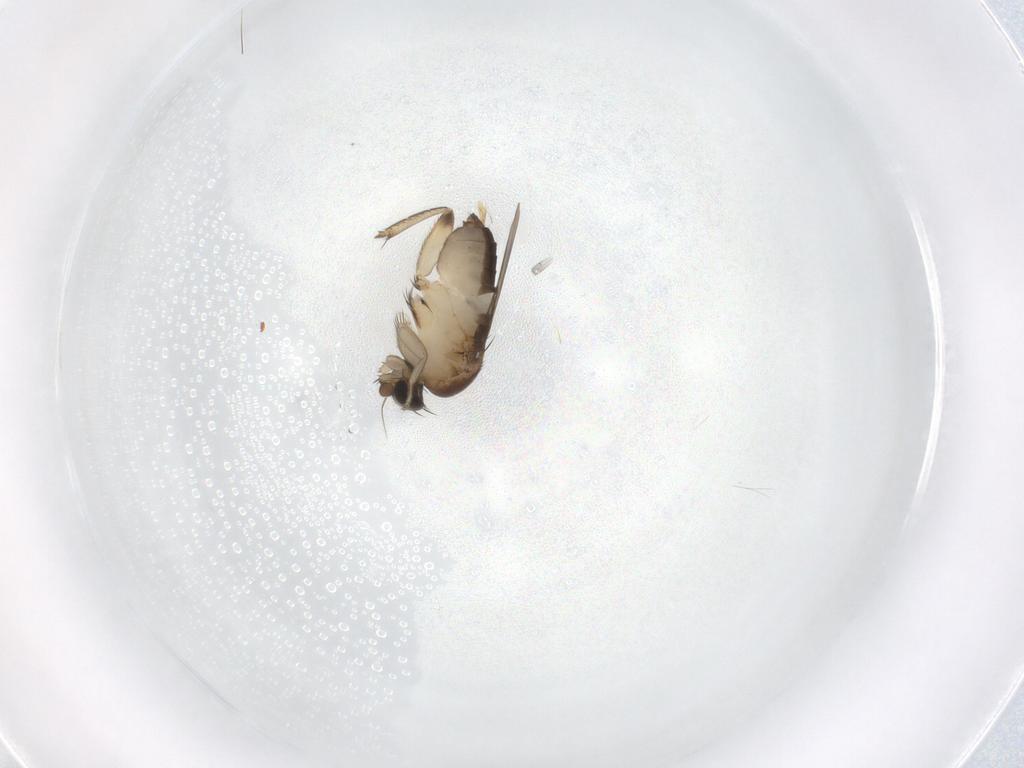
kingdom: Animalia
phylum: Arthropoda
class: Insecta
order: Diptera
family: Phoridae
